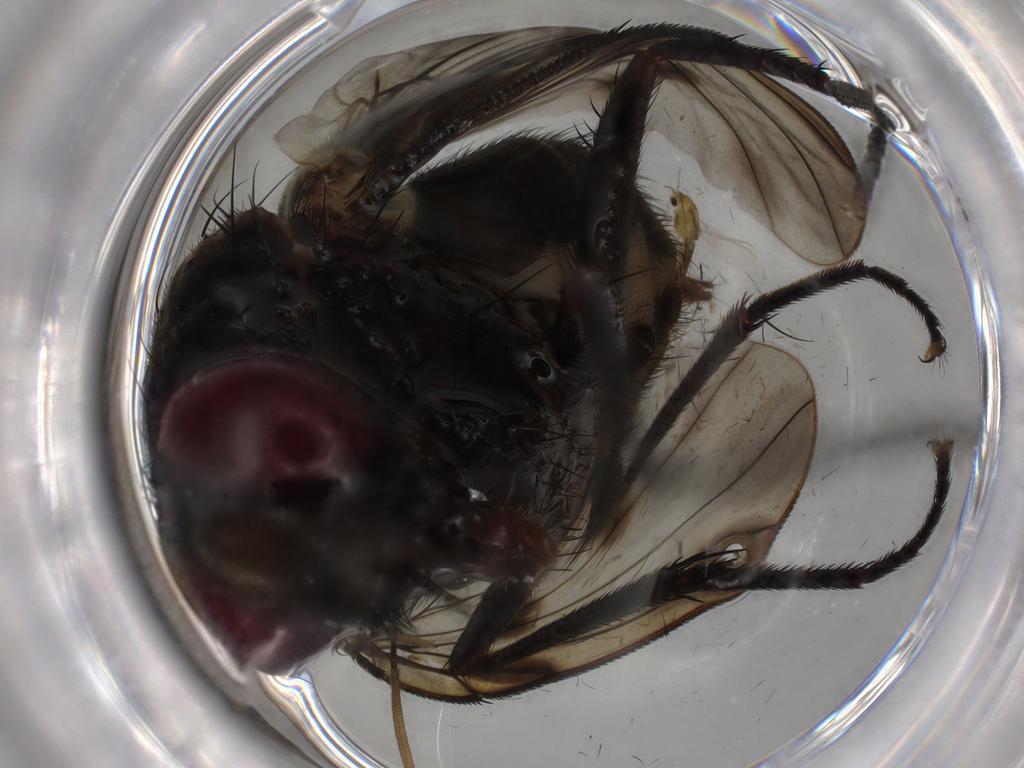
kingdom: Animalia
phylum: Arthropoda
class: Insecta
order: Diptera
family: Muscidae
